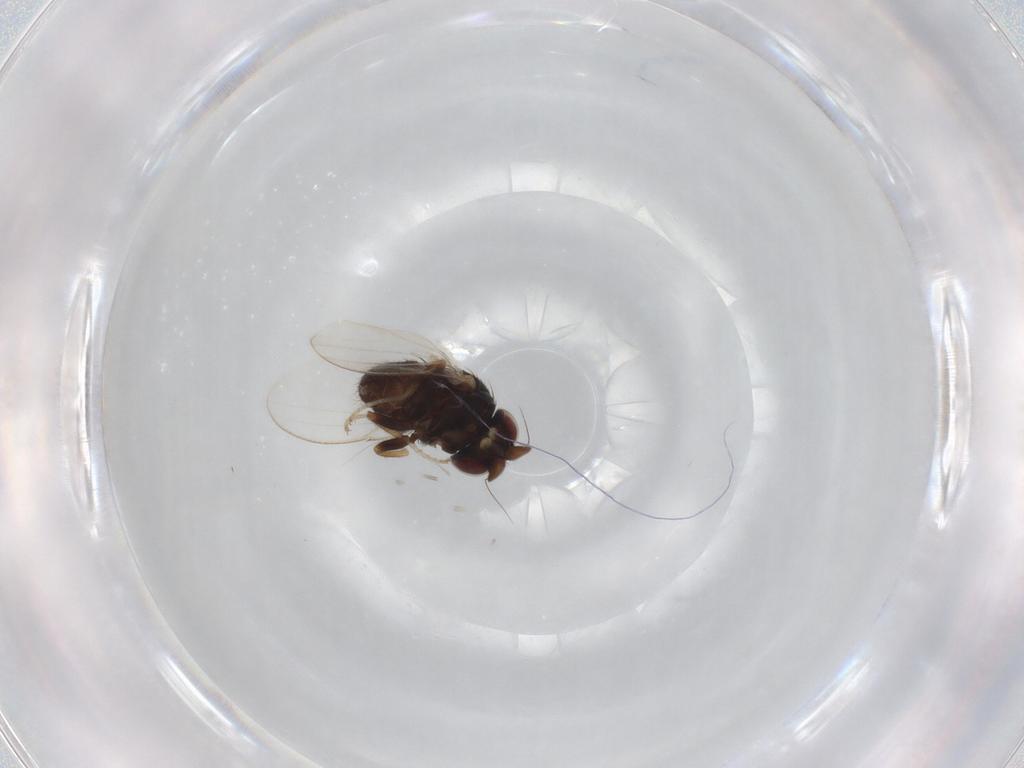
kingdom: Animalia
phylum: Arthropoda
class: Insecta
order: Diptera
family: Milichiidae
